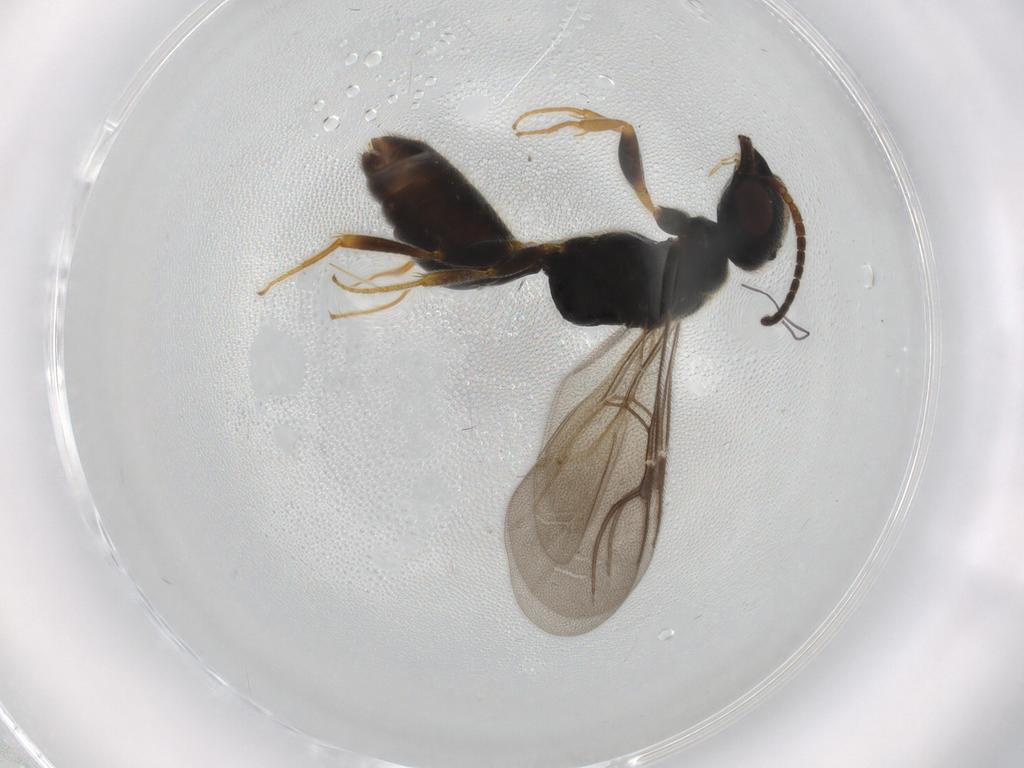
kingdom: Animalia
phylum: Arthropoda
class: Insecta
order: Hymenoptera
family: Bethylidae
